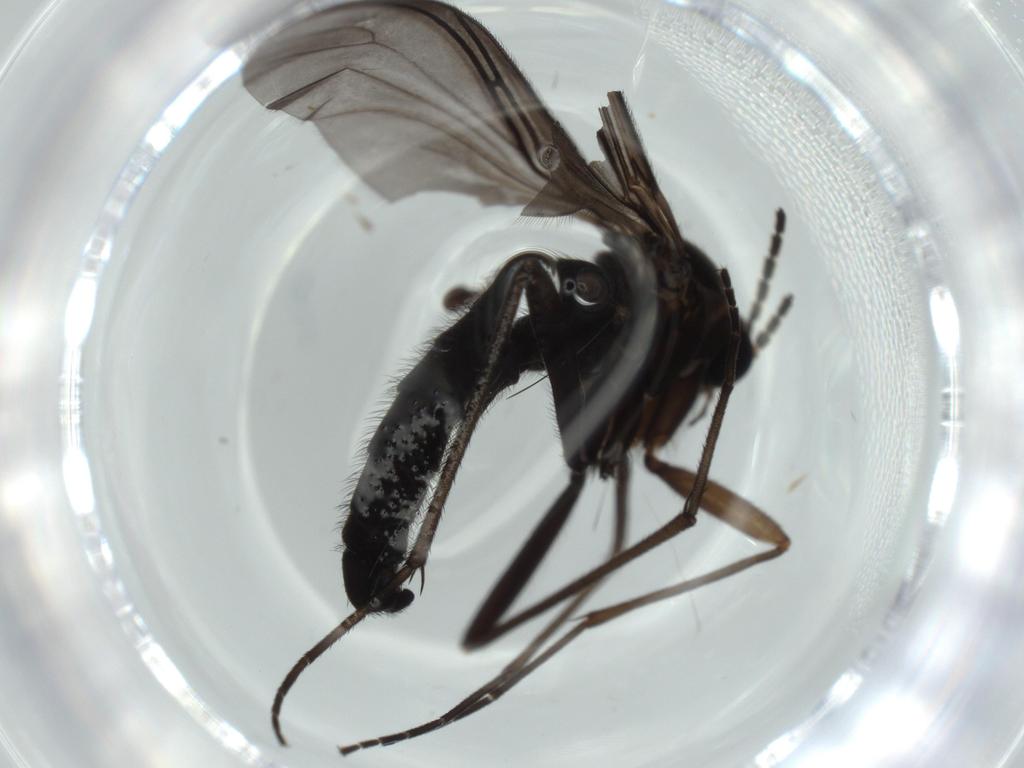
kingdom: Animalia
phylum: Arthropoda
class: Insecta
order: Diptera
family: Sciaridae
